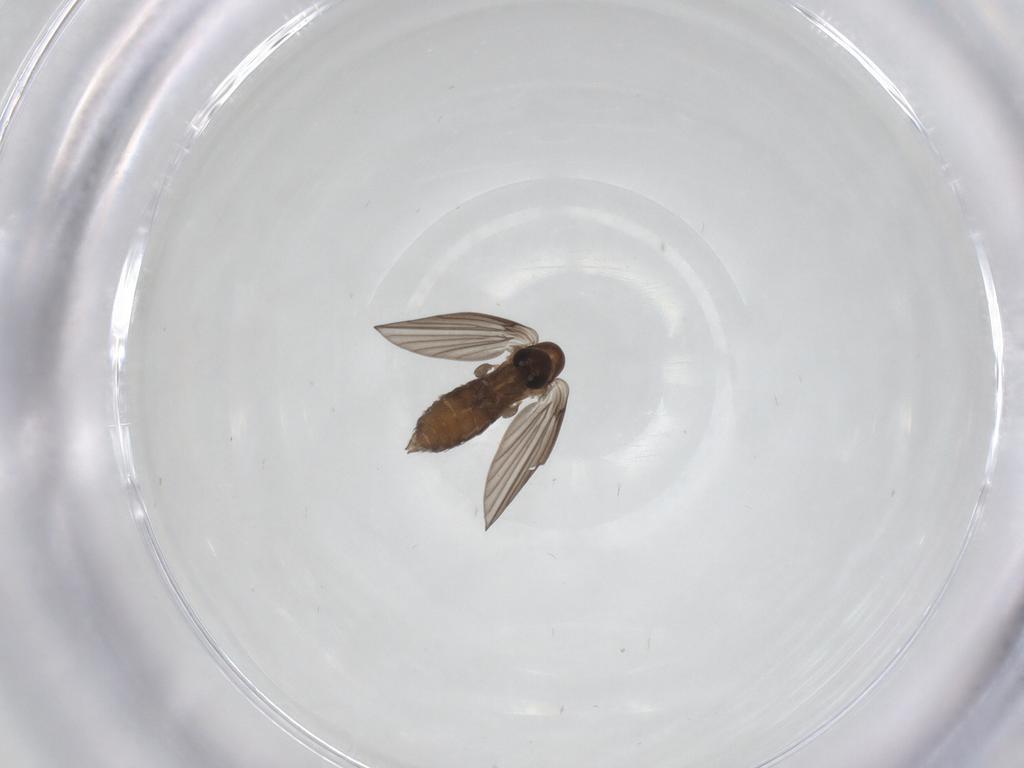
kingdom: Animalia
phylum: Arthropoda
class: Insecta
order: Diptera
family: Psychodidae
